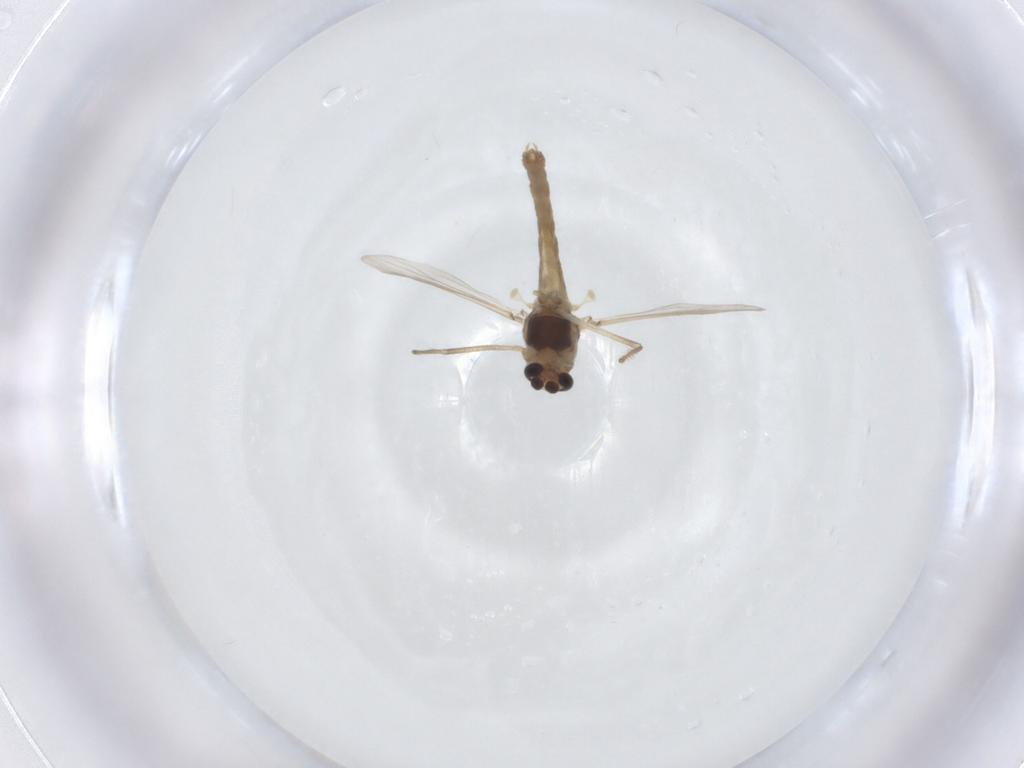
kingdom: Animalia
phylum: Arthropoda
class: Insecta
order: Diptera
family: Chironomidae
